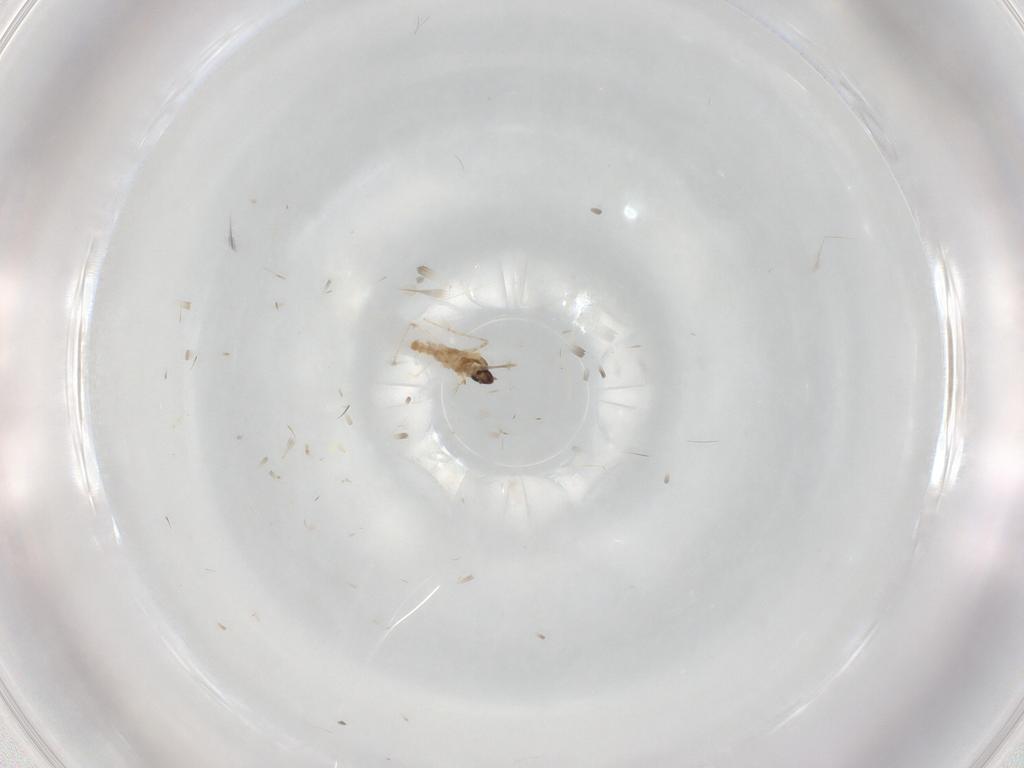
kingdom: Animalia
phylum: Arthropoda
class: Insecta
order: Diptera
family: Cecidomyiidae
